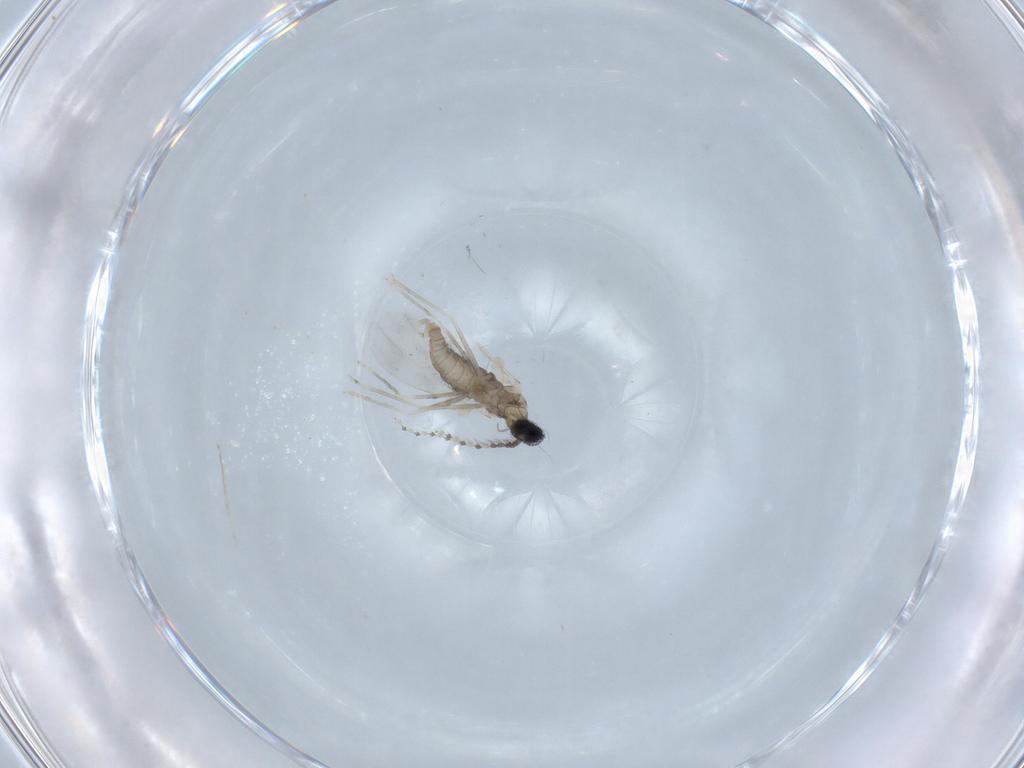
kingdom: Animalia
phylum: Arthropoda
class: Insecta
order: Diptera
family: Cecidomyiidae
